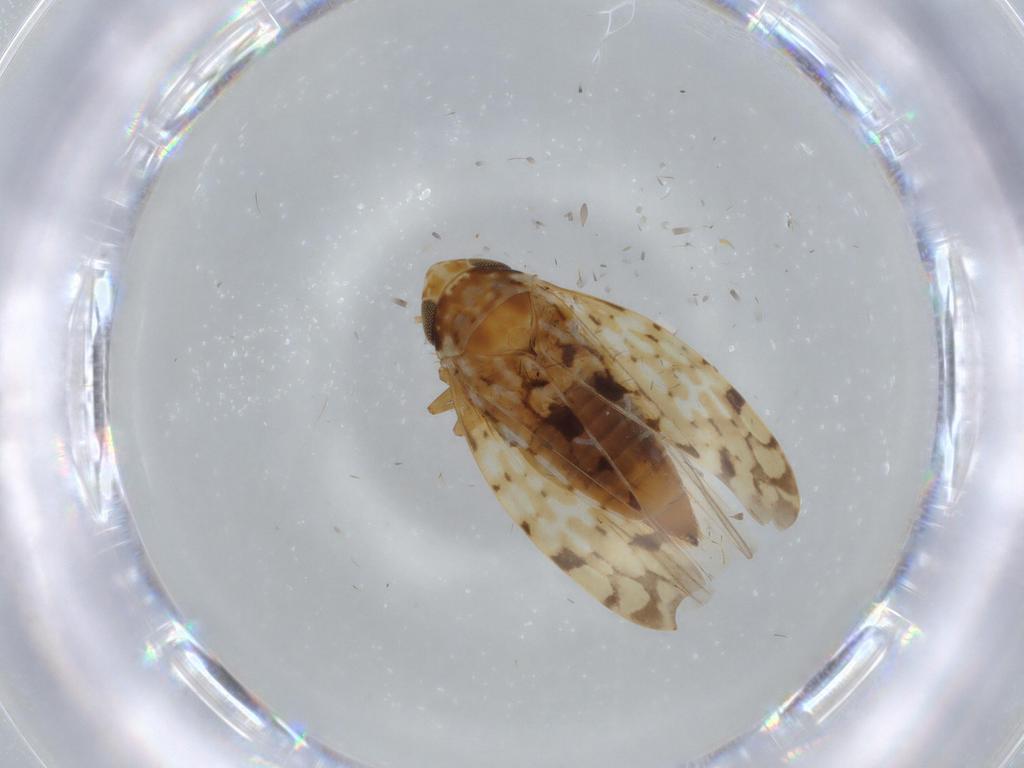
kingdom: Animalia
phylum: Arthropoda
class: Insecta
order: Hemiptera
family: Cicadellidae
